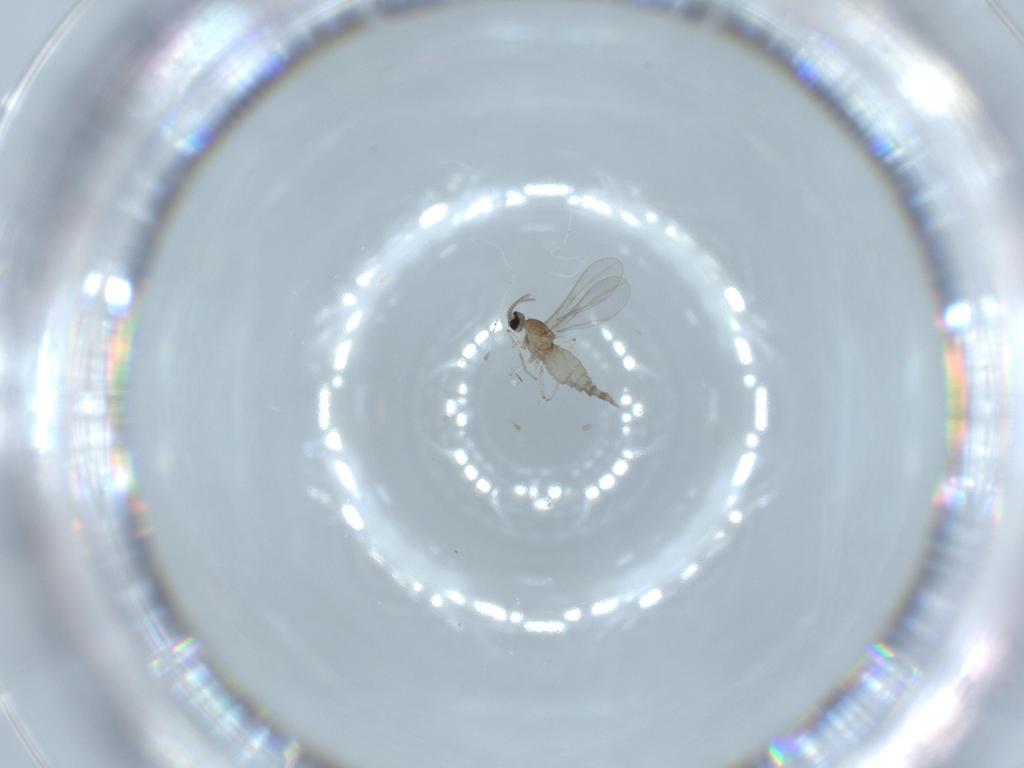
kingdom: Animalia
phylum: Arthropoda
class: Insecta
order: Diptera
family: Cecidomyiidae
